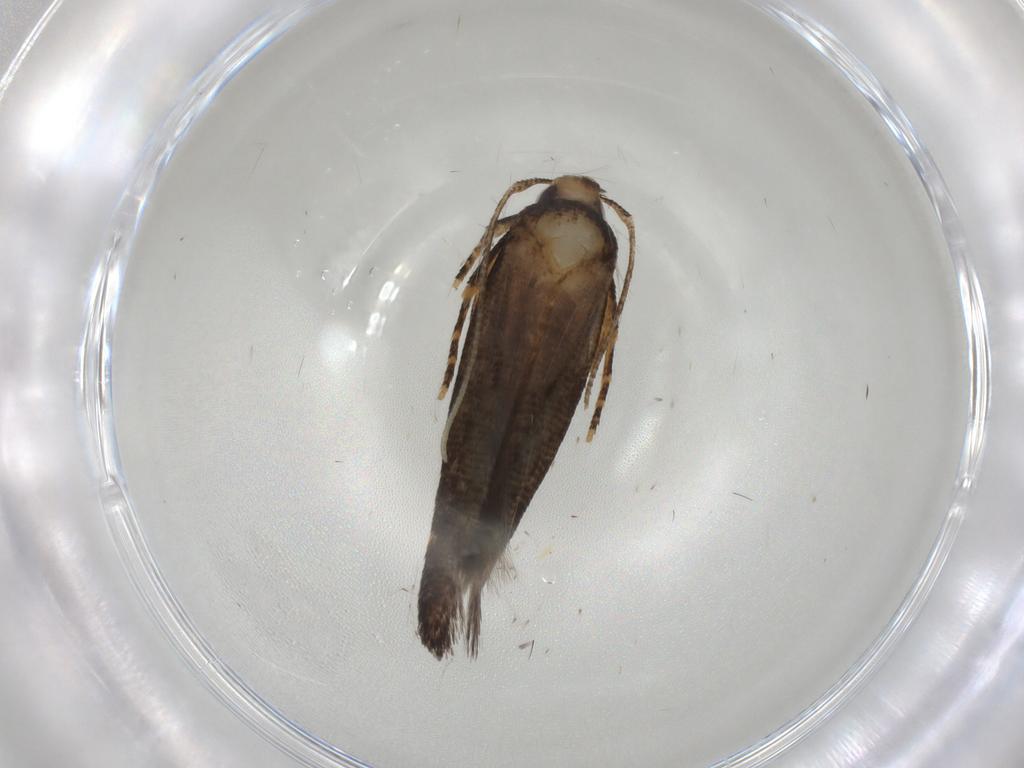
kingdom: Animalia
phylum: Arthropoda
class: Insecta
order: Lepidoptera
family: Cosmopterigidae
